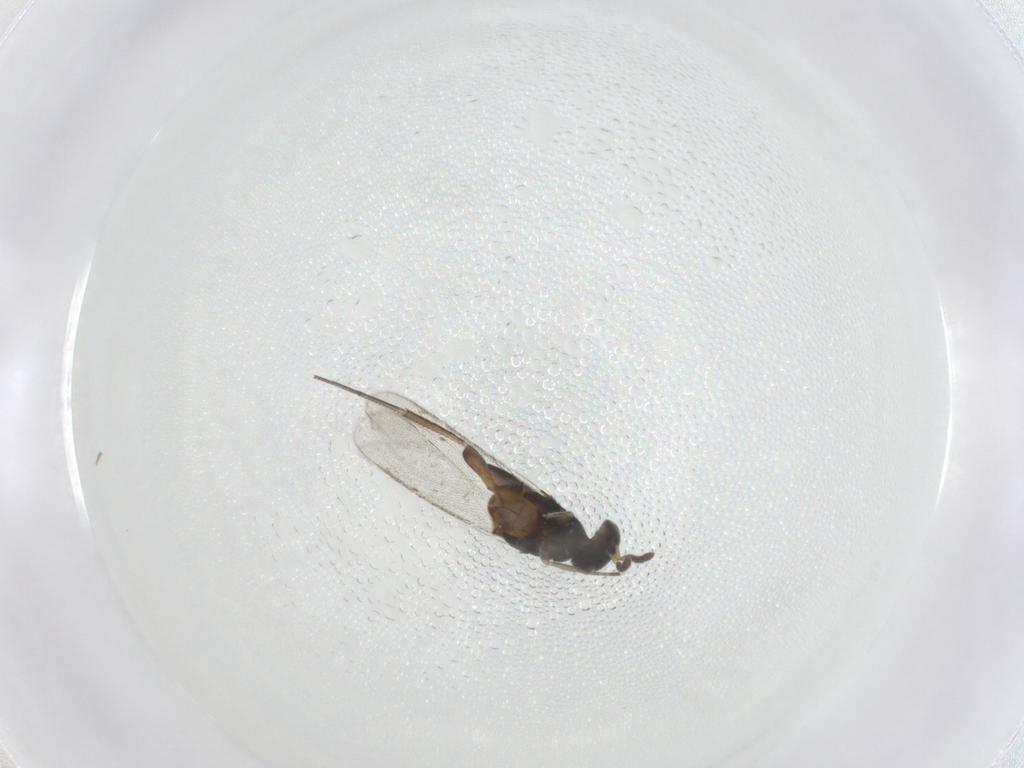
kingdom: Animalia
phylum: Arthropoda
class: Insecta
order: Hymenoptera
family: Eulophidae
